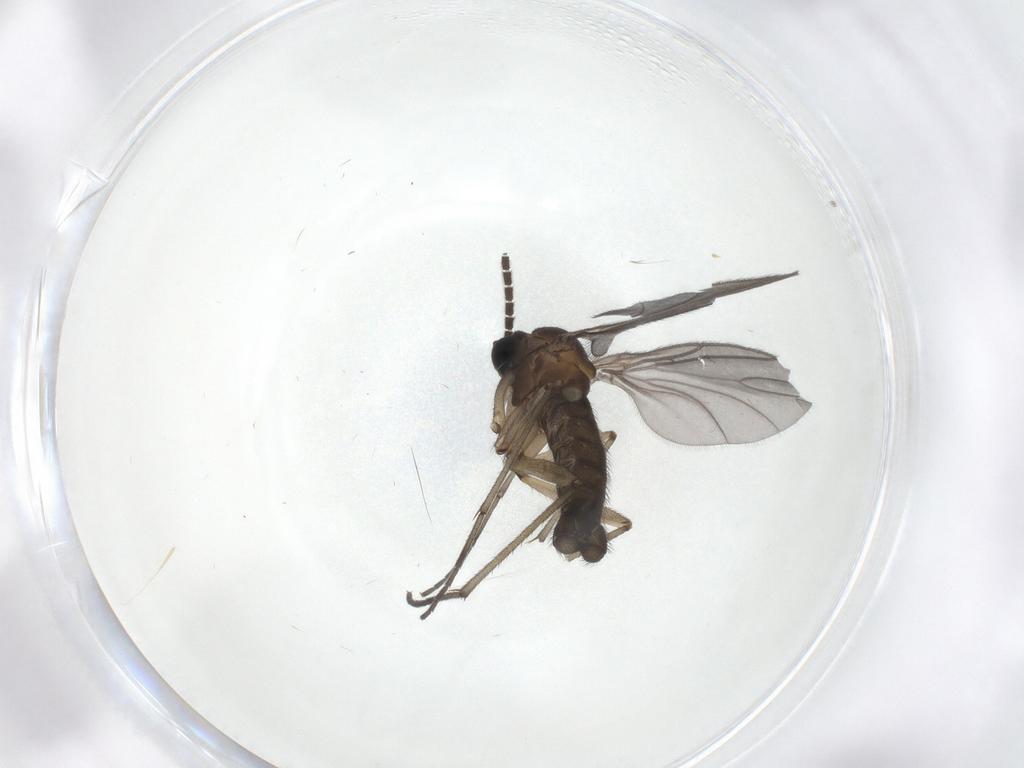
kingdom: Animalia
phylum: Arthropoda
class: Insecta
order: Diptera
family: Sciaridae
